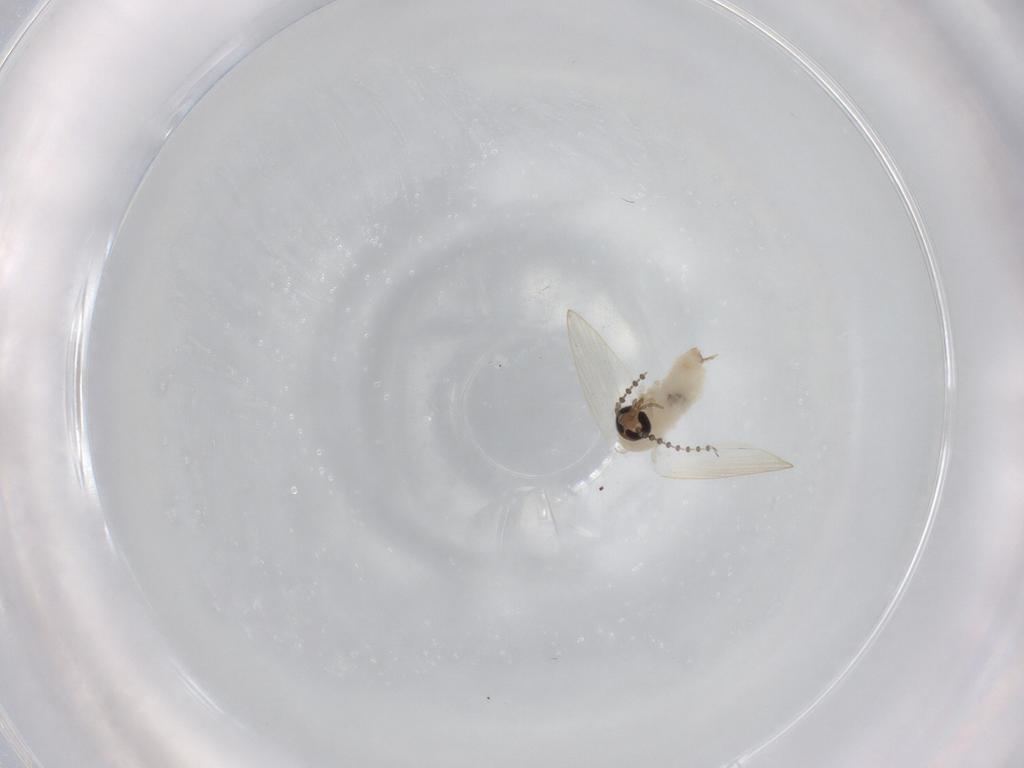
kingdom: Animalia
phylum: Arthropoda
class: Insecta
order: Diptera
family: Psychodidae
